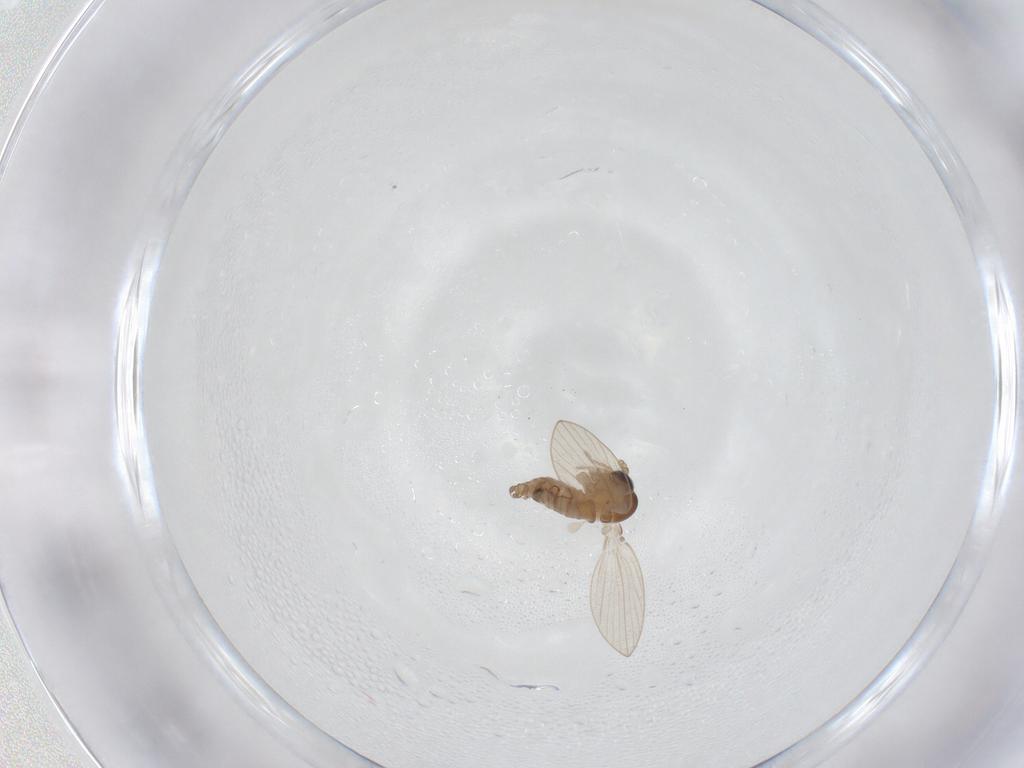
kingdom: Animalia
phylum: Arthropoda
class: Insecta
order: Diptera
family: Psychodidae
